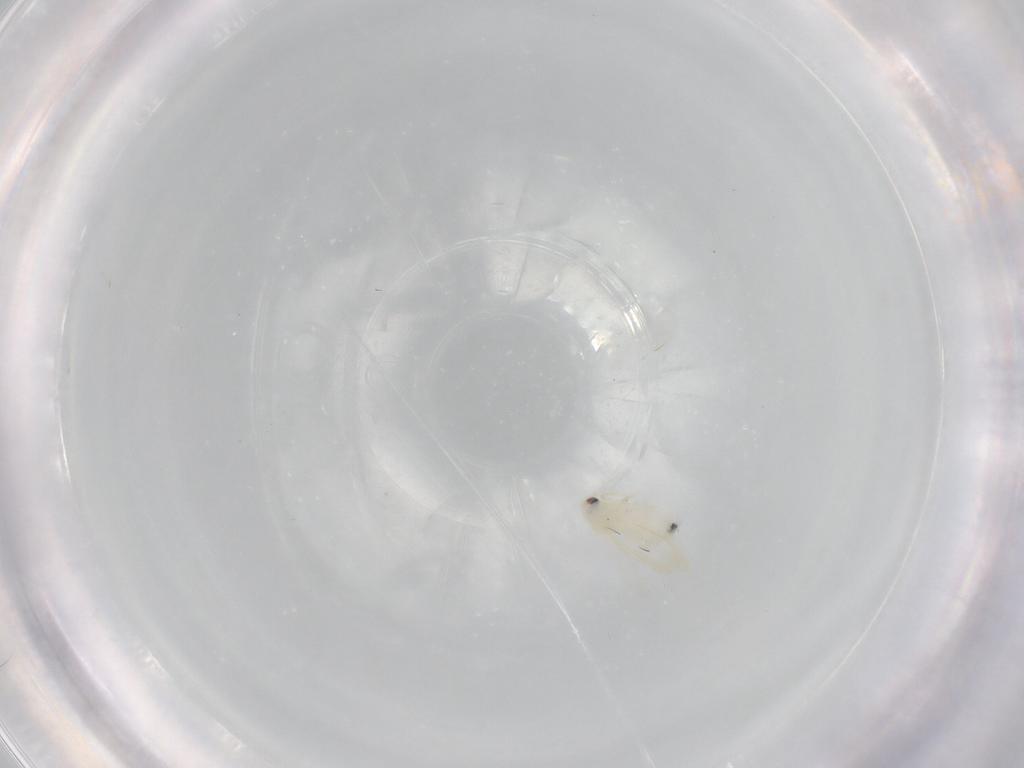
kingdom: Animalia
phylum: Arthropoda
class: Insecta
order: Hemiptera
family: Aleyrodidae
